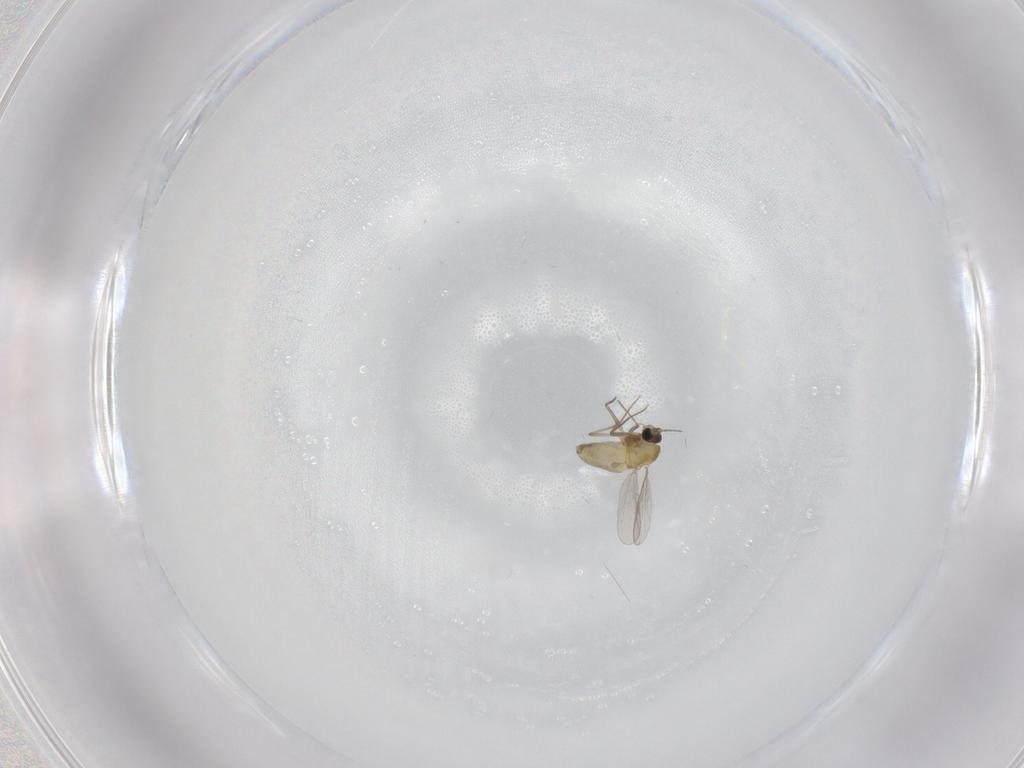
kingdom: Animalia
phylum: Arthropoda
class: Insecta
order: Diptera
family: Chironomidae
